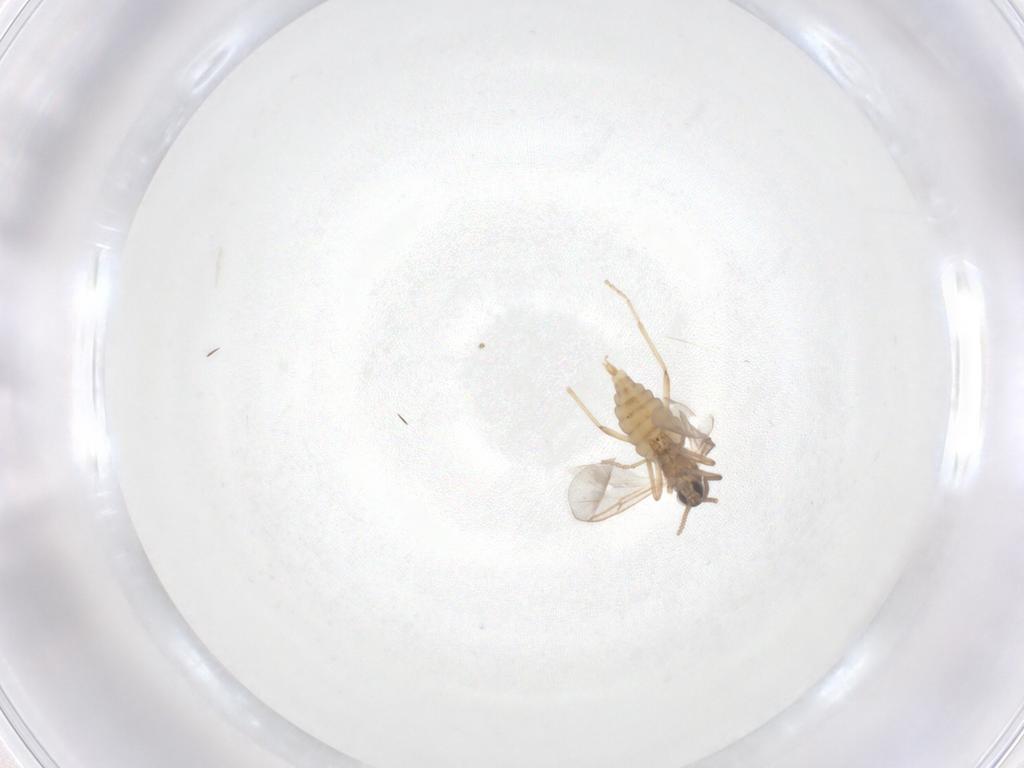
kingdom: Animalia
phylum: Arthropoda
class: Insecta
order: Diptera
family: Cecidomyiidae
